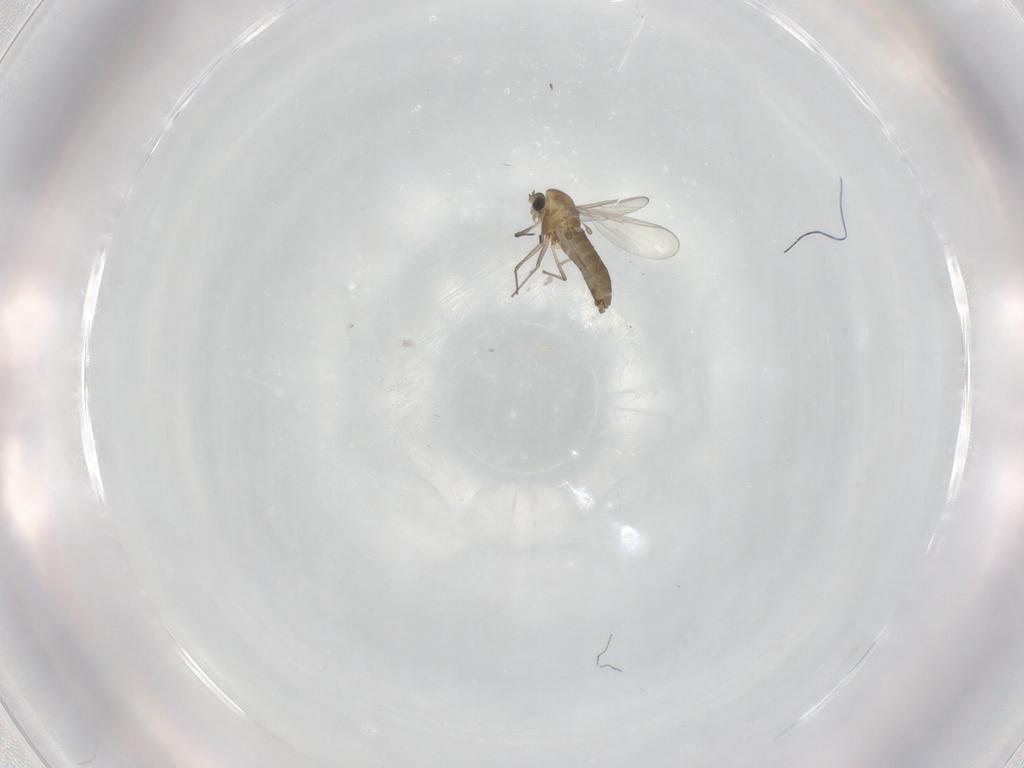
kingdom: Animalia
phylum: Arthropoda
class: Insecta
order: Diptera
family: Chironomidae
